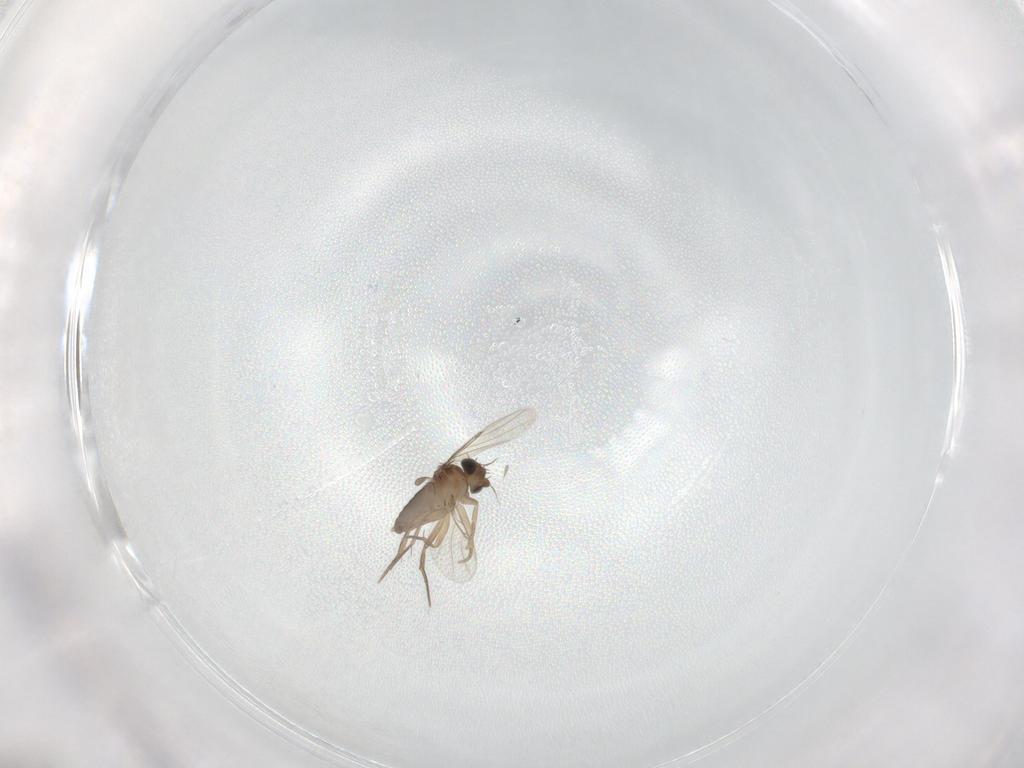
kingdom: Animalia
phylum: Arthropoda
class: Insecta
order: Diptera
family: Phoridae
